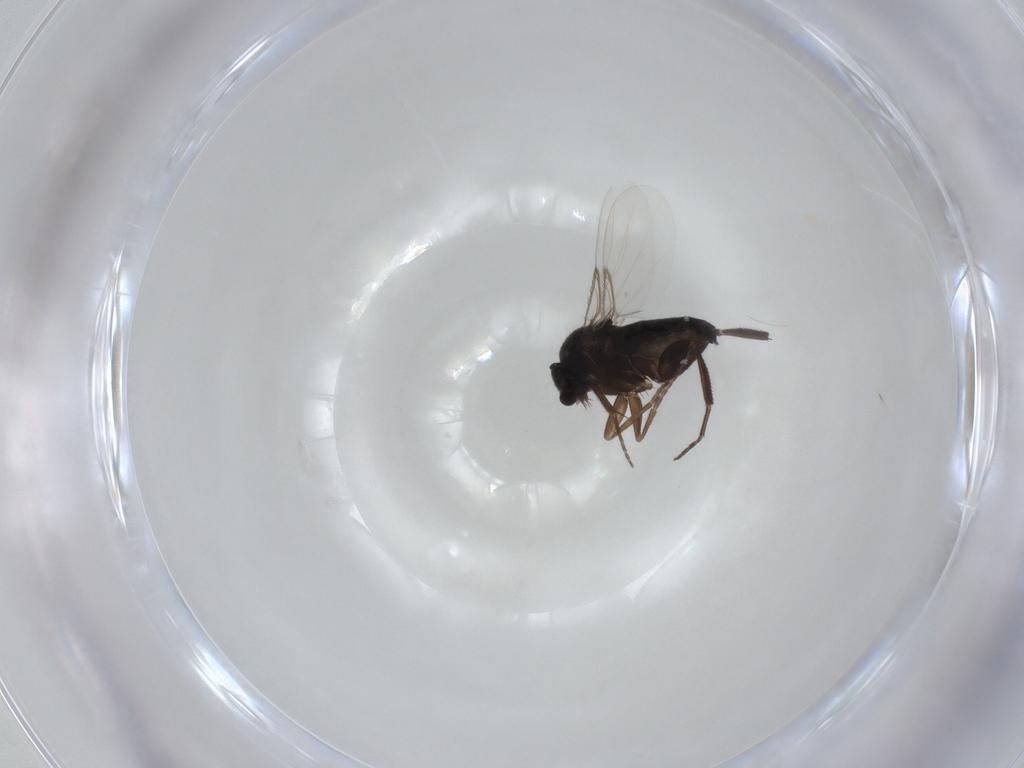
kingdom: Animalia
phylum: Arthropoda
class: Insecta
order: Diptera
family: Phoridae
